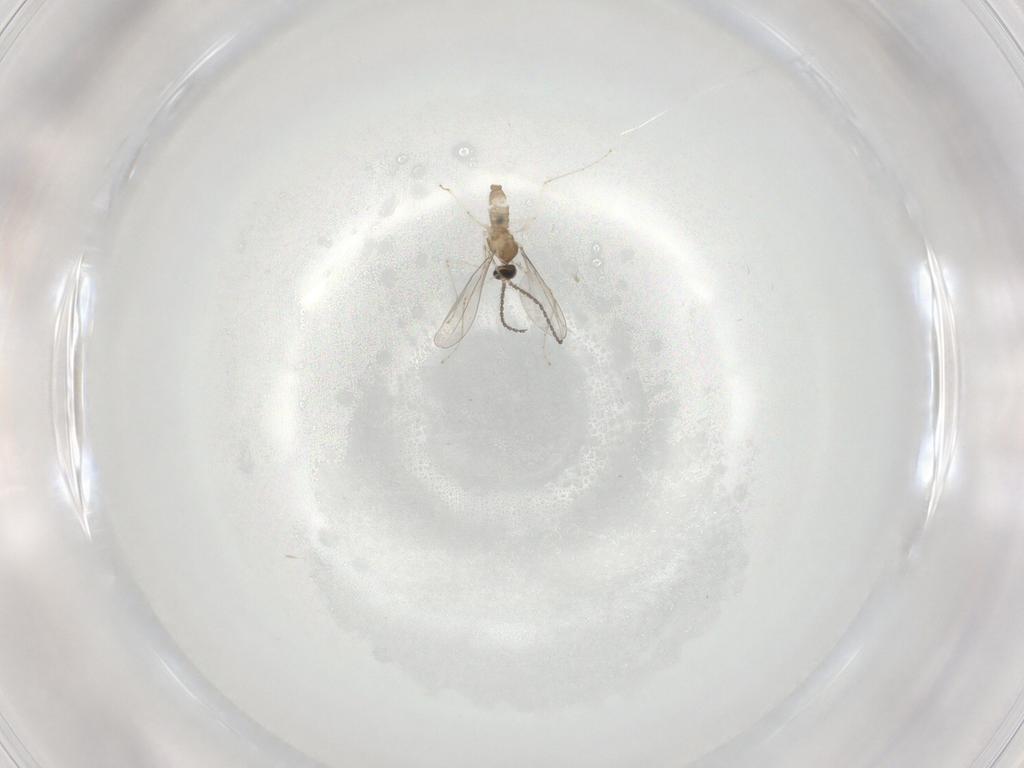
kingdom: Animalia
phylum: Arthropoda
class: Insecta
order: Diptera
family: Cecidomyiidae
